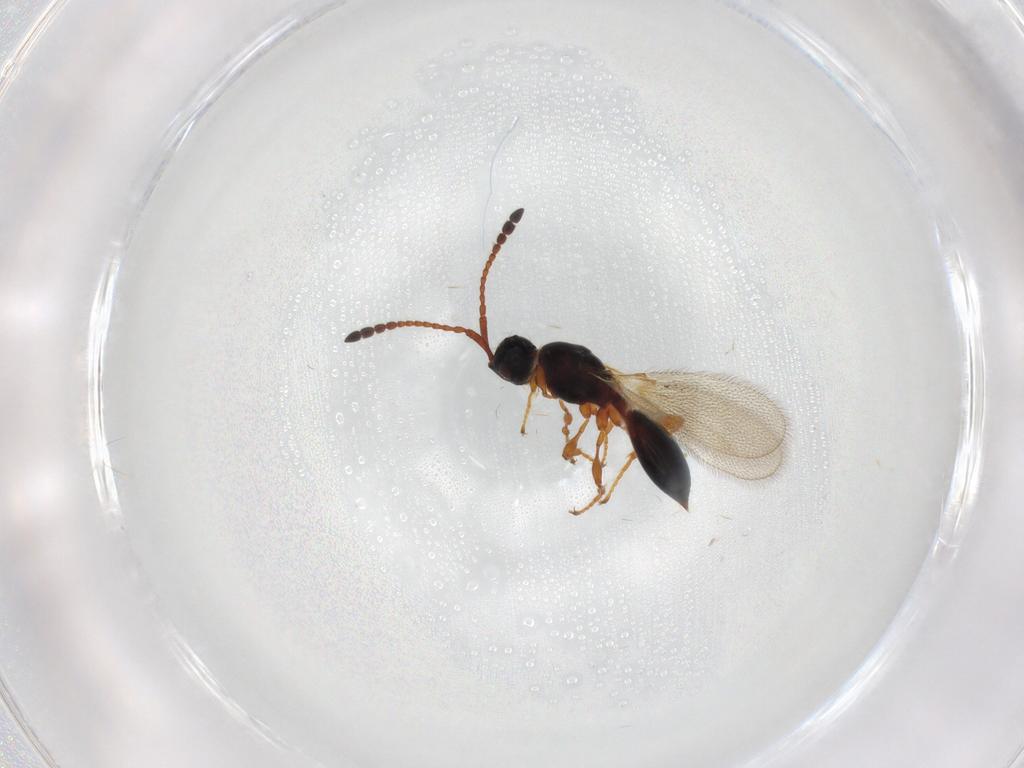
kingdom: Animalia
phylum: Arthropoda
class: Insecta
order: Hymenoptera
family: Diapriidae
